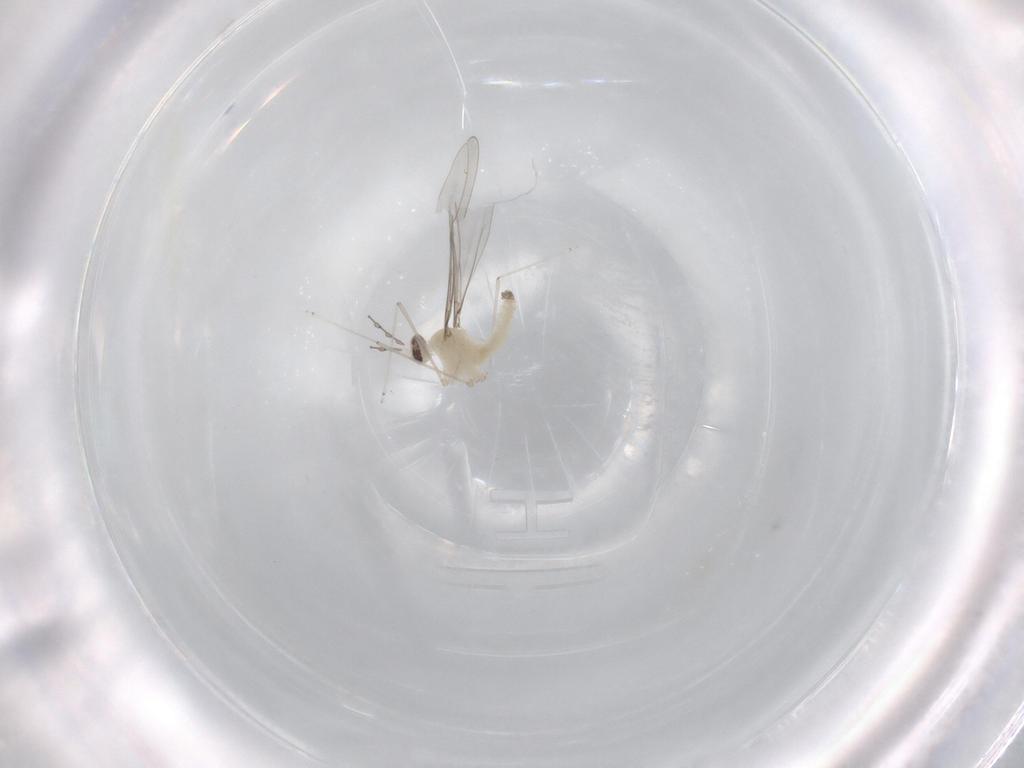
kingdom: Animalia
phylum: Arthropoda
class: Insecta
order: Diptera
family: Cecidomyiidae
